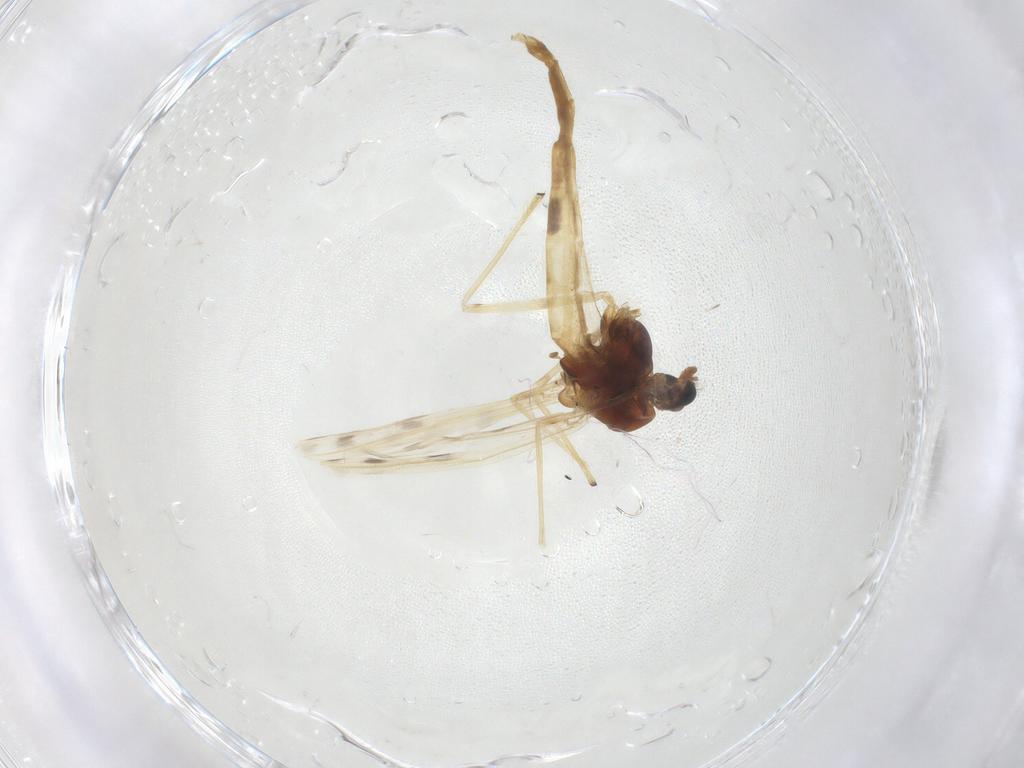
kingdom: Animalia
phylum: Arthropoda
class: Insecta
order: Diptera
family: Chironomidae
